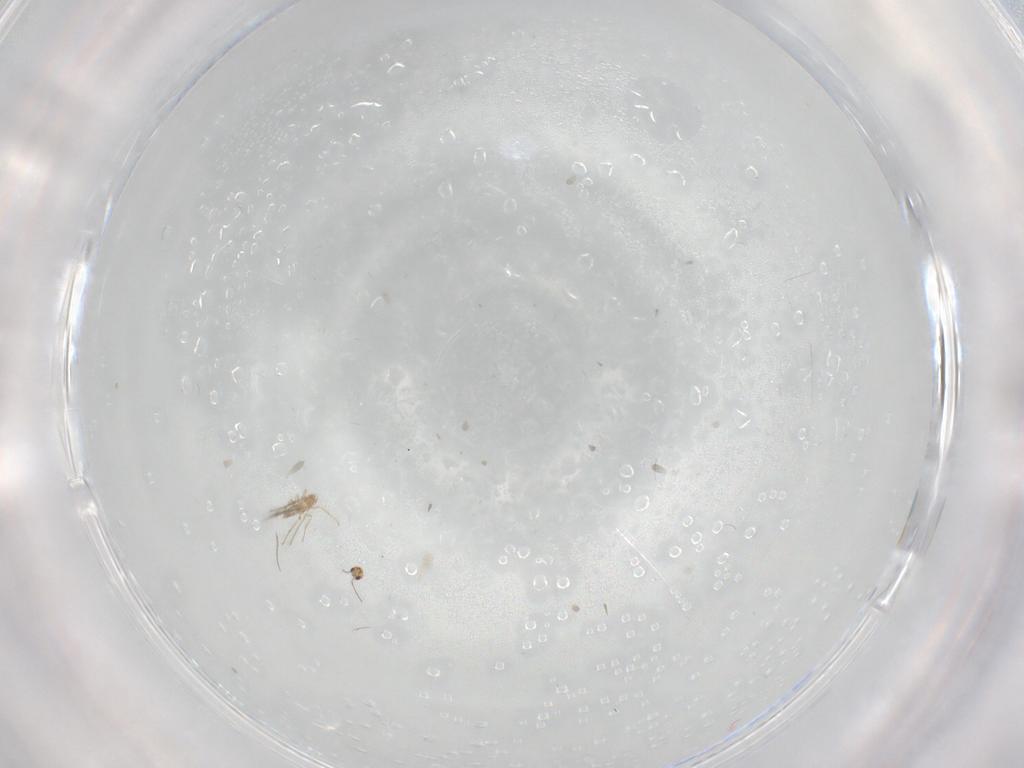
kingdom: Animalia
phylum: Arthropoda
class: Insecta
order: Hymenoptera
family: Mymaridae
